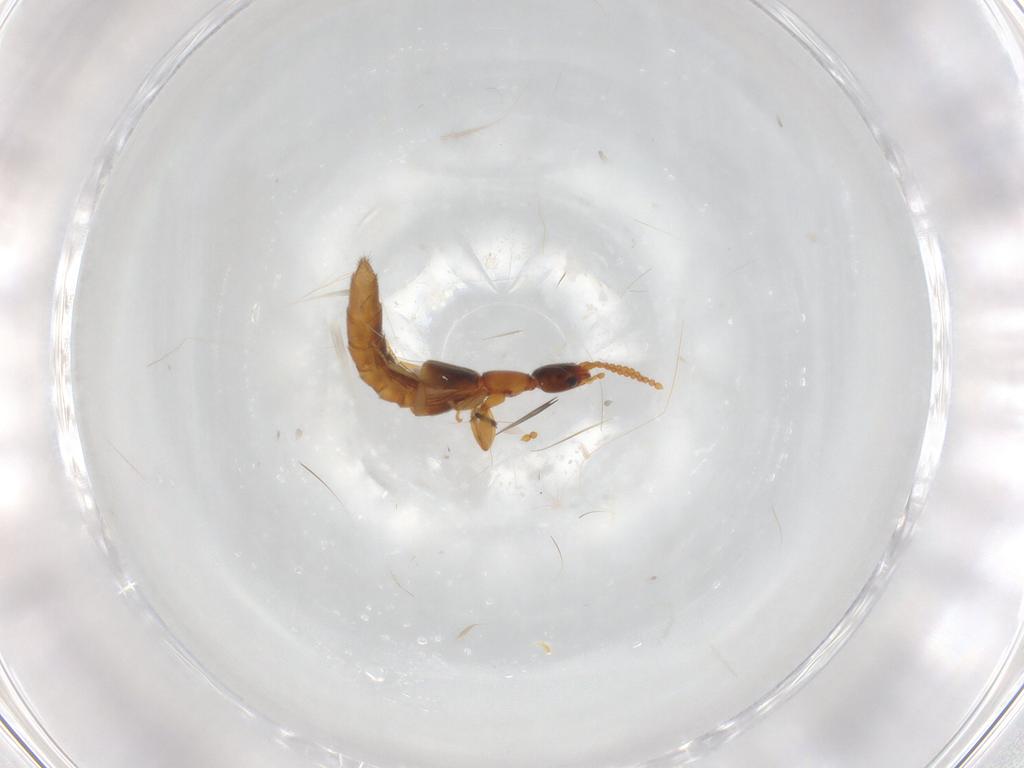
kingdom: Animalia
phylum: Arthropoda
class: Insecta
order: Coleoptera
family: Staphylinidae
